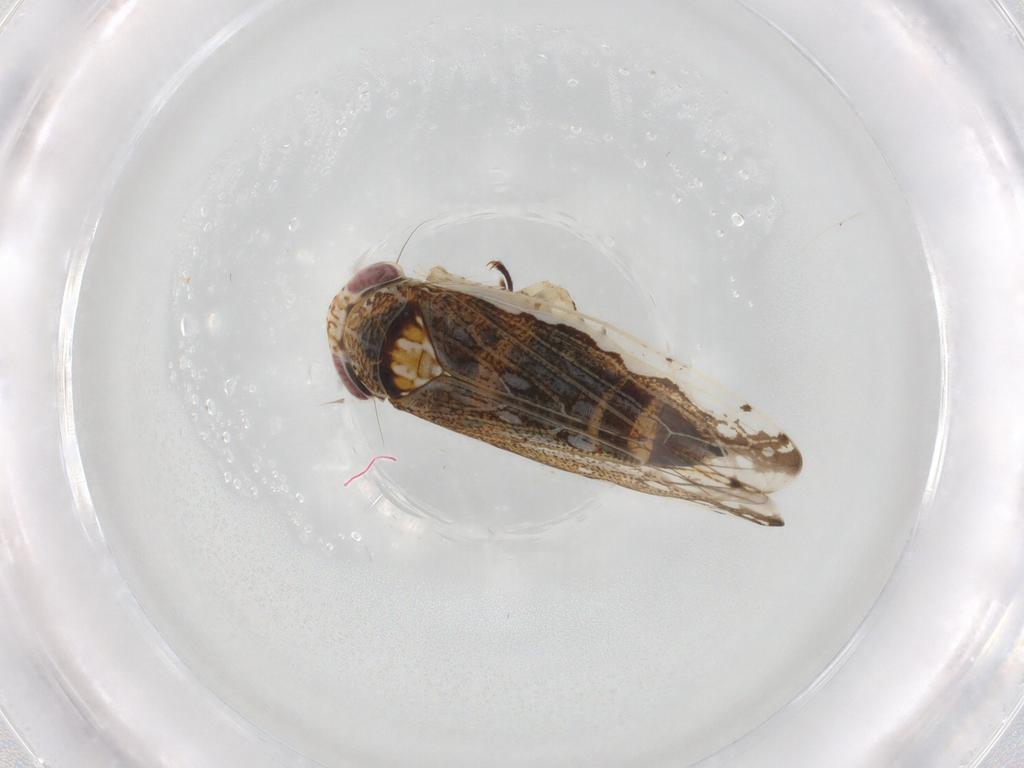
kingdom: Animalia
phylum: Arthropoda
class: Insecta
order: Hemiptera
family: Cicadellidae
